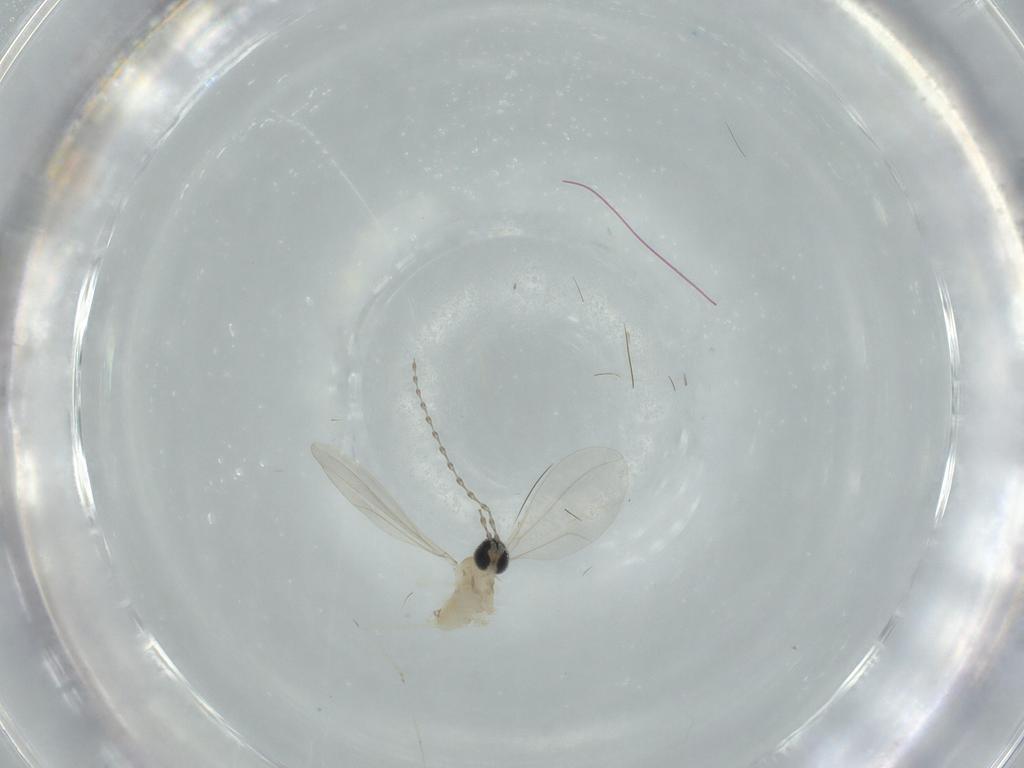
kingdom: Animalia
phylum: Arthropoda
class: Insecta
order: Diptera
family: Cecidomyiidae
